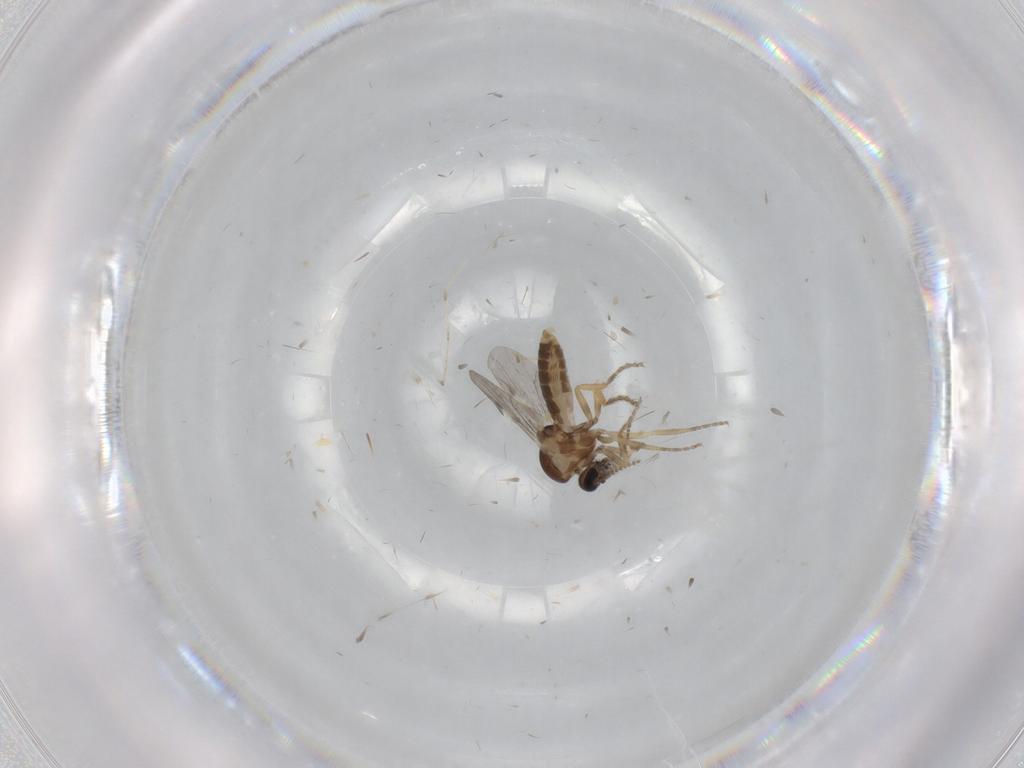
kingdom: Animalia
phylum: Arthropoda
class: Insecta
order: Diptera
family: Ceratopogonidae
